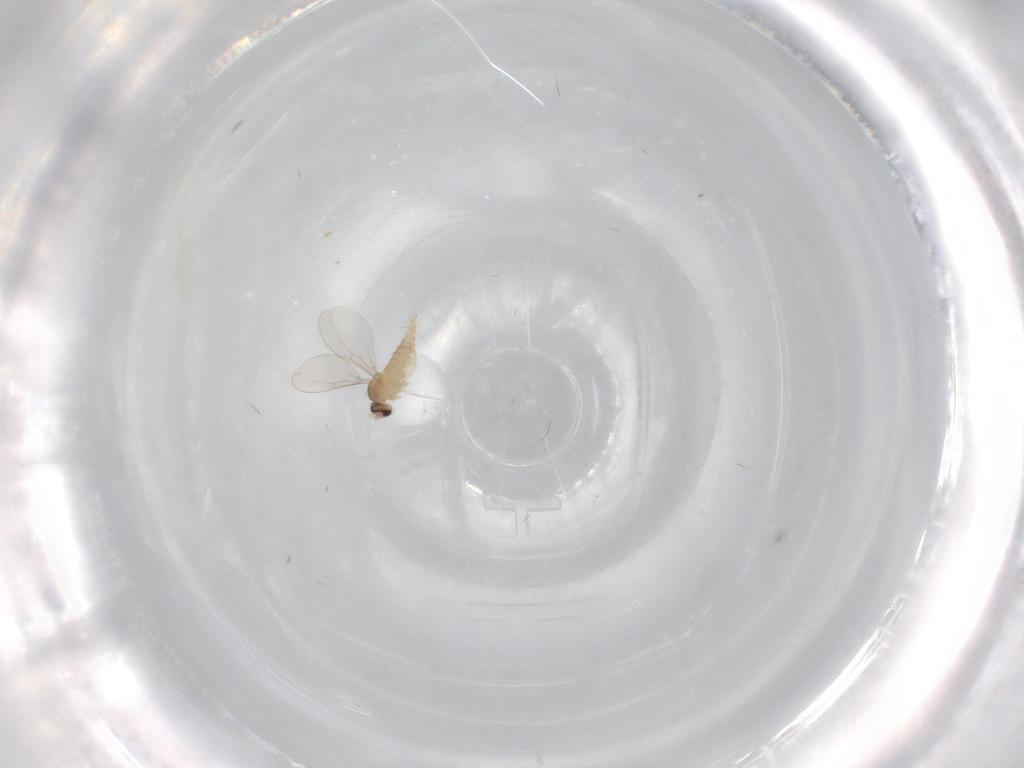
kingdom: Animalia
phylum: Arthropoda
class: Insecta
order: Diptera
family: Cecidomyiidae
